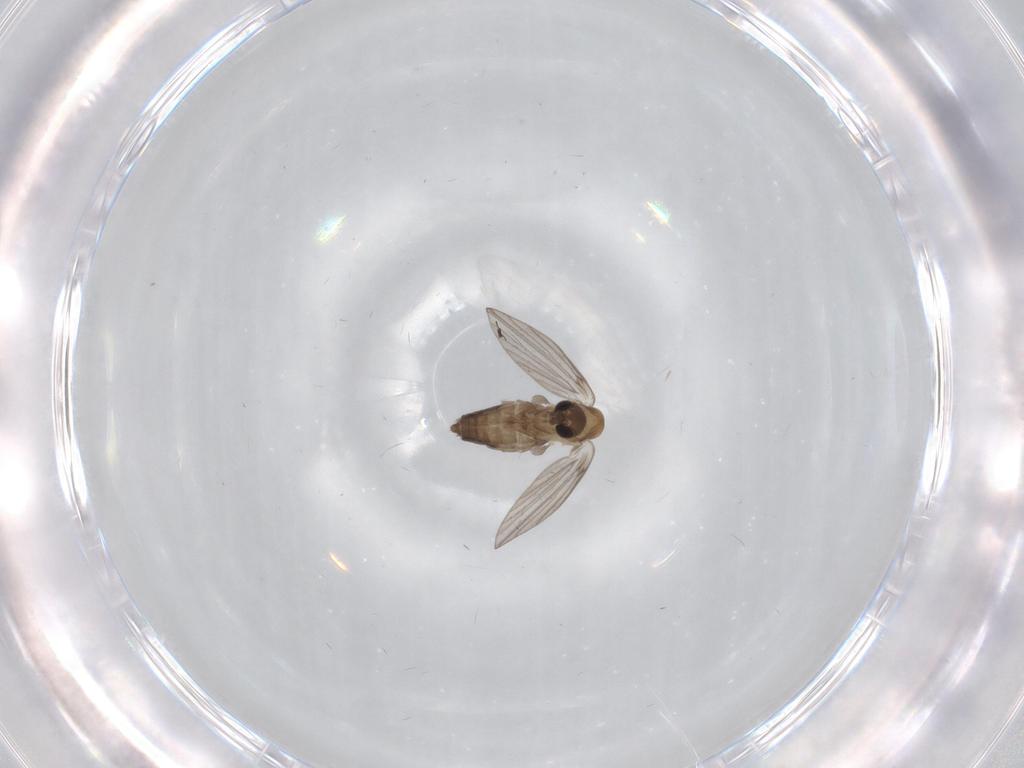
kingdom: Animalia
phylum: Arthropoda
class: Insecta
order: Diptera
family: Psychodidae
